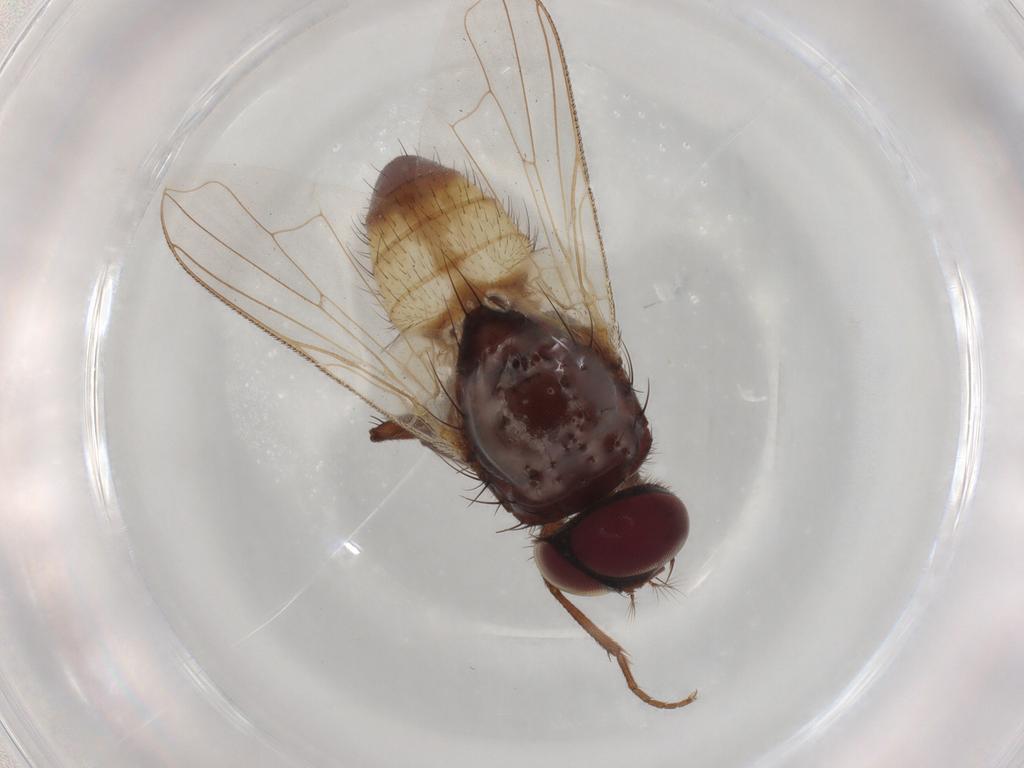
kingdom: Animalia
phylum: Arthropoda
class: Insecta
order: Diptera
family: Muscidae
